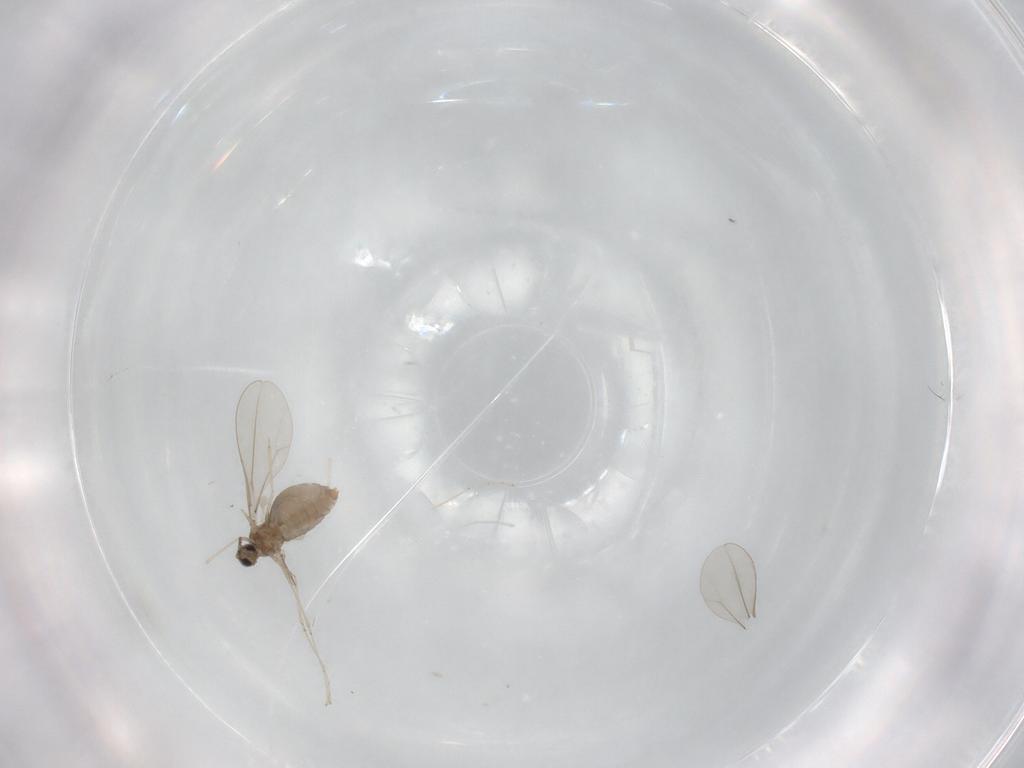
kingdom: Animalia
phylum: Arthropoda
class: Insecta
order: Diptera
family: Cecidomyiidae
